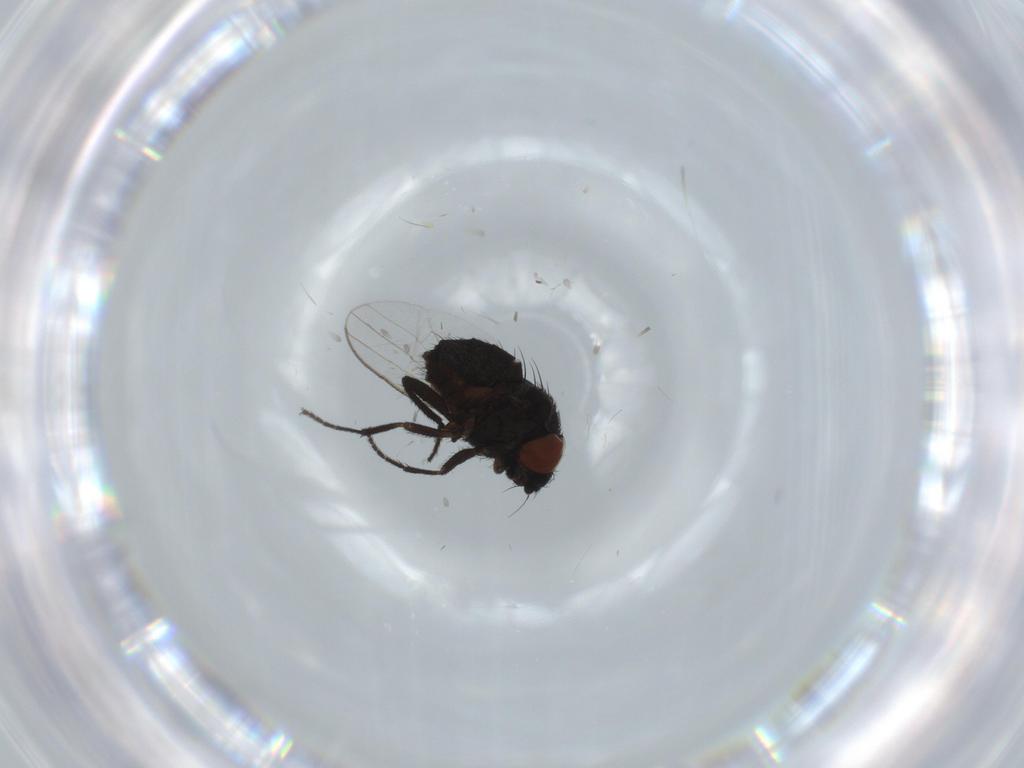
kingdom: Animalia
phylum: Arthropoda
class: Insecta
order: Diptera
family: Milichiidae
